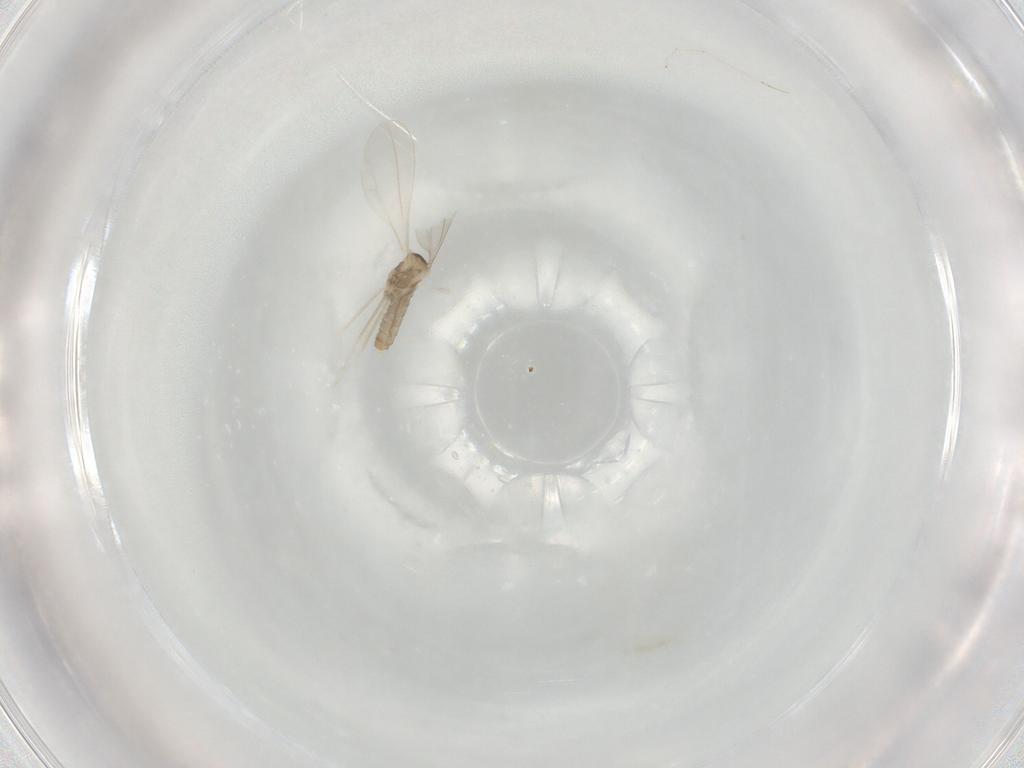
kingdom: Animalia
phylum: Arthropoda
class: Insecta
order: Diptera
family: Cecidomyiidae
